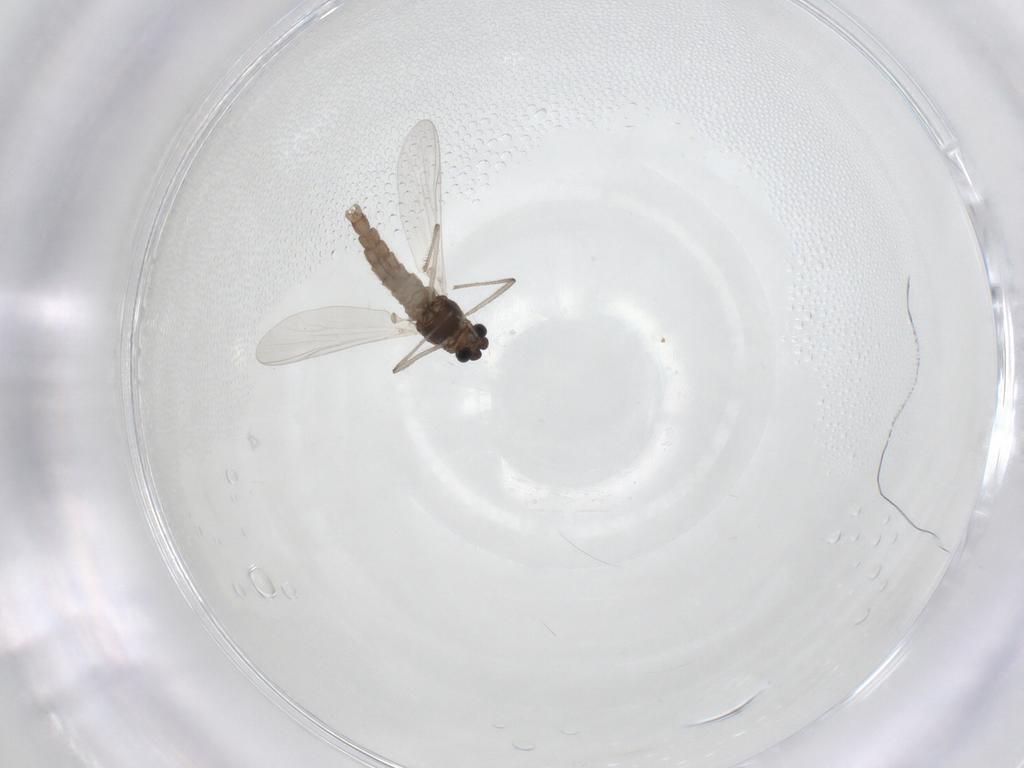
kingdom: Animalia
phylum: Arthropoda
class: Insecta
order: Diptera
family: Chironomidae
